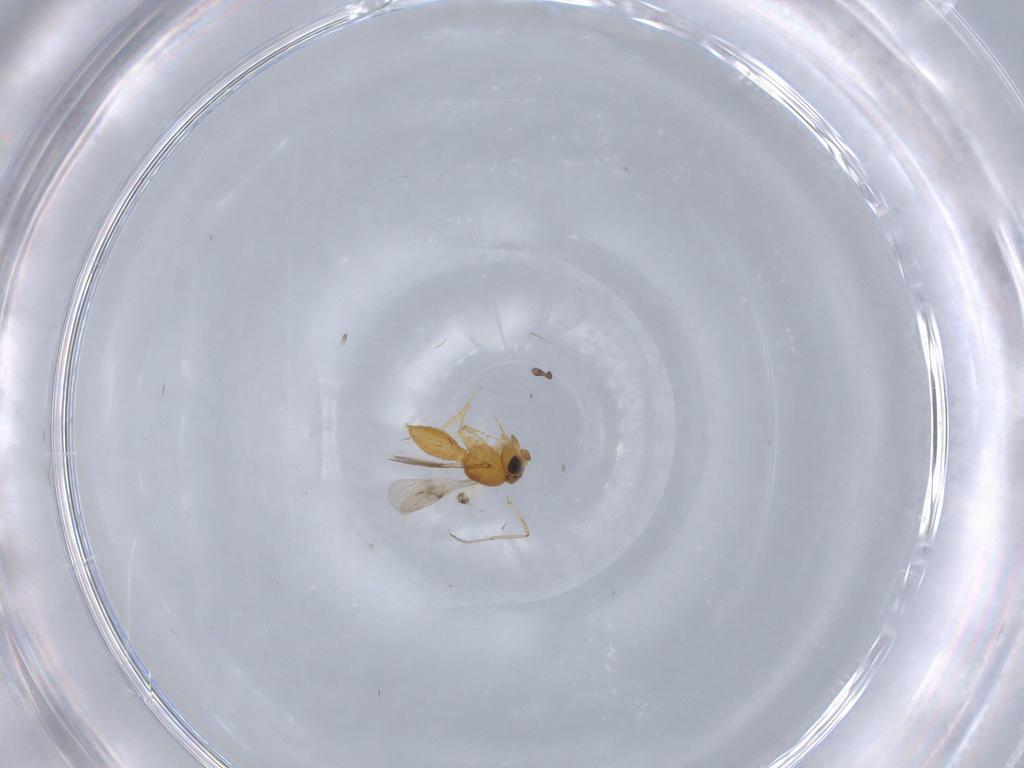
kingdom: Animalia
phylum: Arthropoda
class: Insecta
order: Hymenoptera
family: Scelionidae
